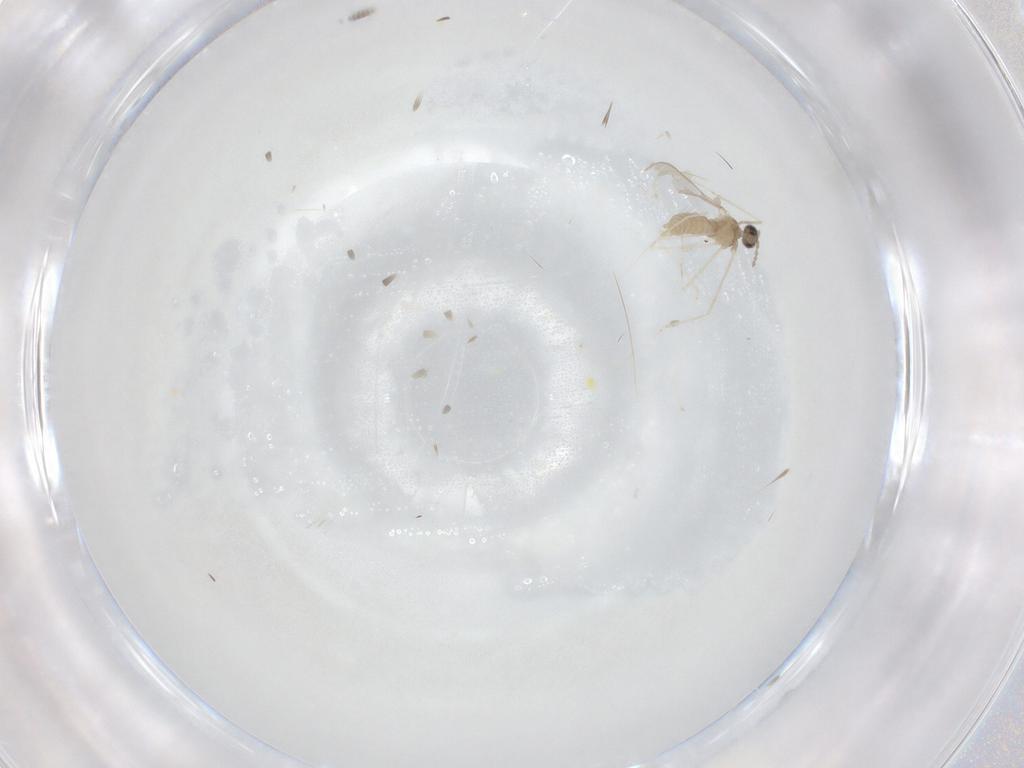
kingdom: Animalia
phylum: Arthropoda
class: Insecta
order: Diptera
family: Cecidomyiidae
